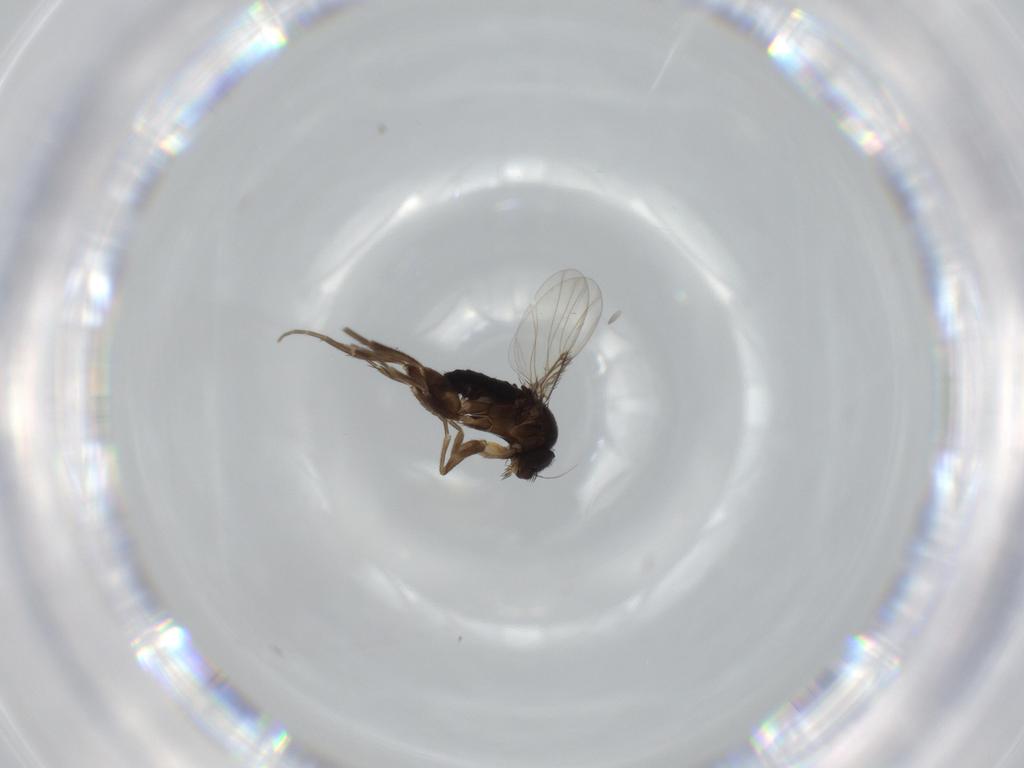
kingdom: Animalia
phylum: Arthropoda
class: Insecta
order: Diptera
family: Phoridae
